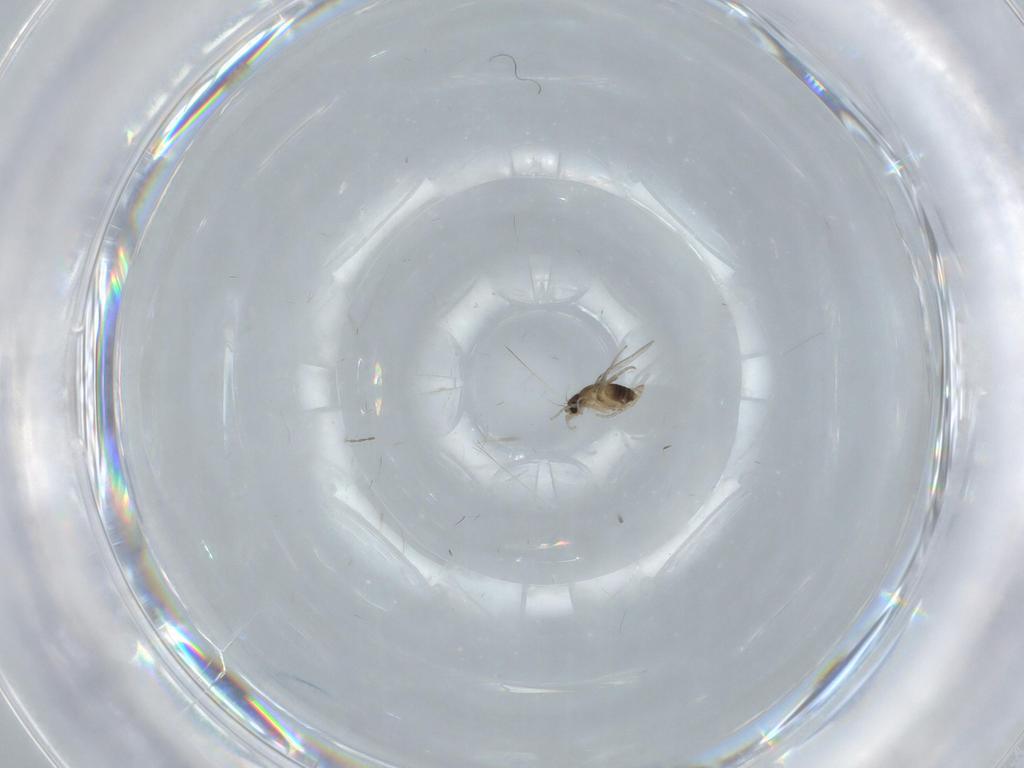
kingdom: Animalia
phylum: Arthropoda
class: Insecta
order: Diptera
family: Phoridae
